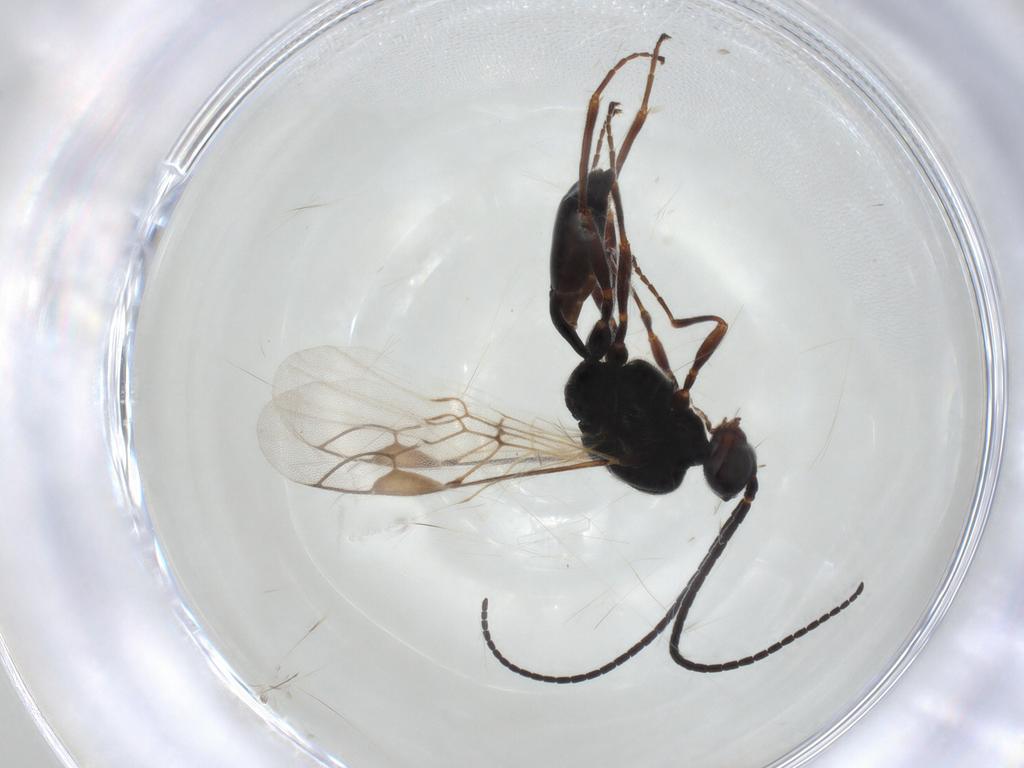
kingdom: Animalia
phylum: Arthropoda
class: Insecta
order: Hymenoptera
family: Braconidae
